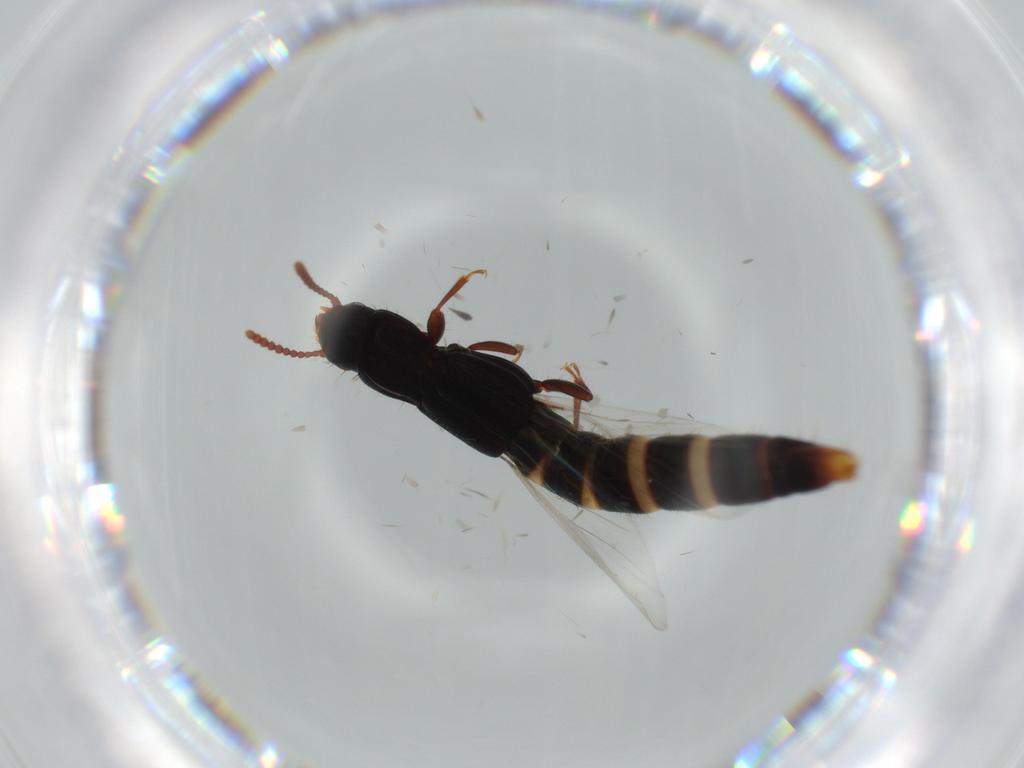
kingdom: Animalia
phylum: Arthropoda
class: Insecta
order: Coleoptera
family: Staphylinidae
